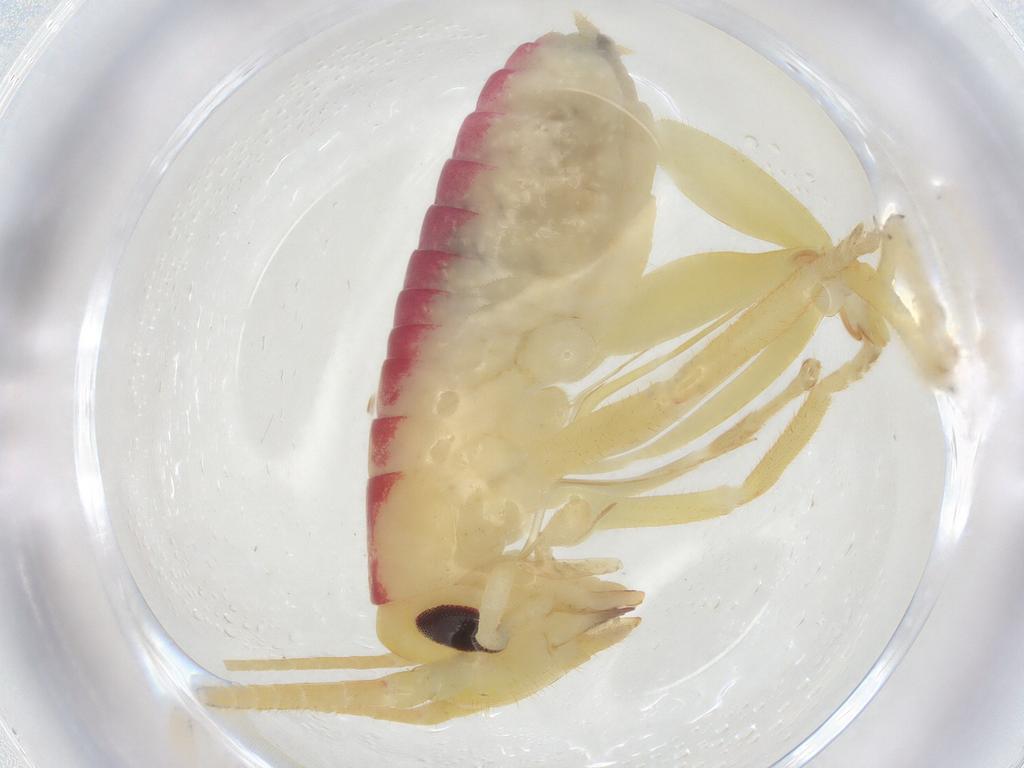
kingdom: Animalia
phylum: Arthropoda
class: Insecta
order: Orthoptera
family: Gryllacrididae
